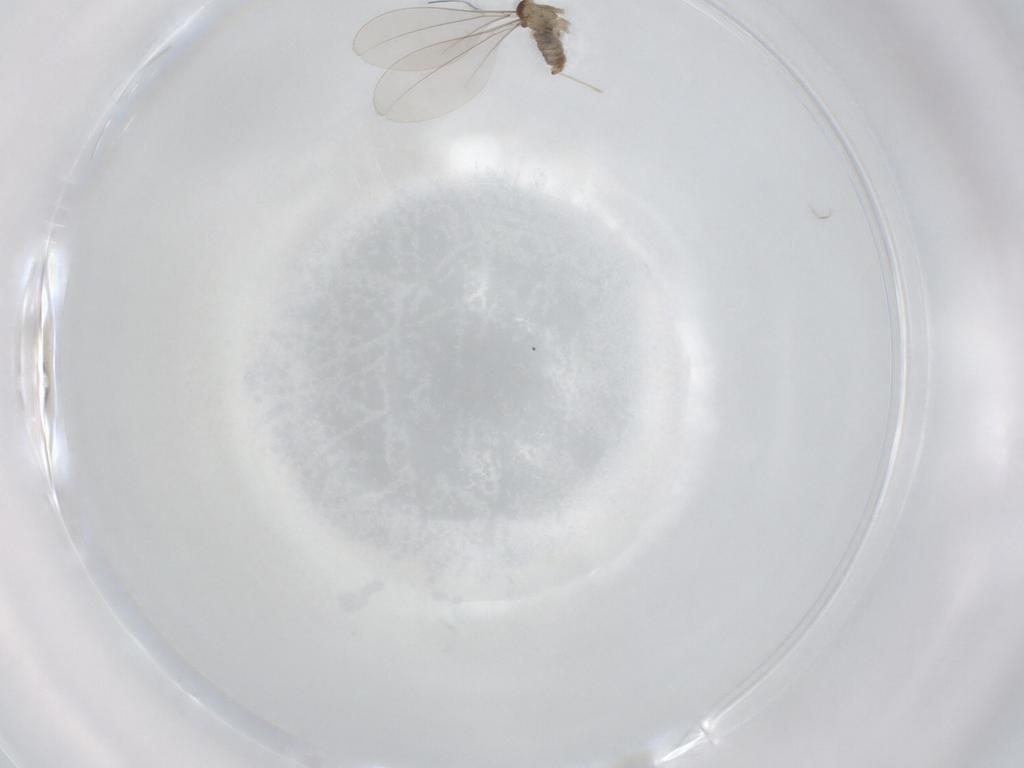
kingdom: Animalia
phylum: Arthropoda
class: Insecta
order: Diptera
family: Cecidomyiidae
